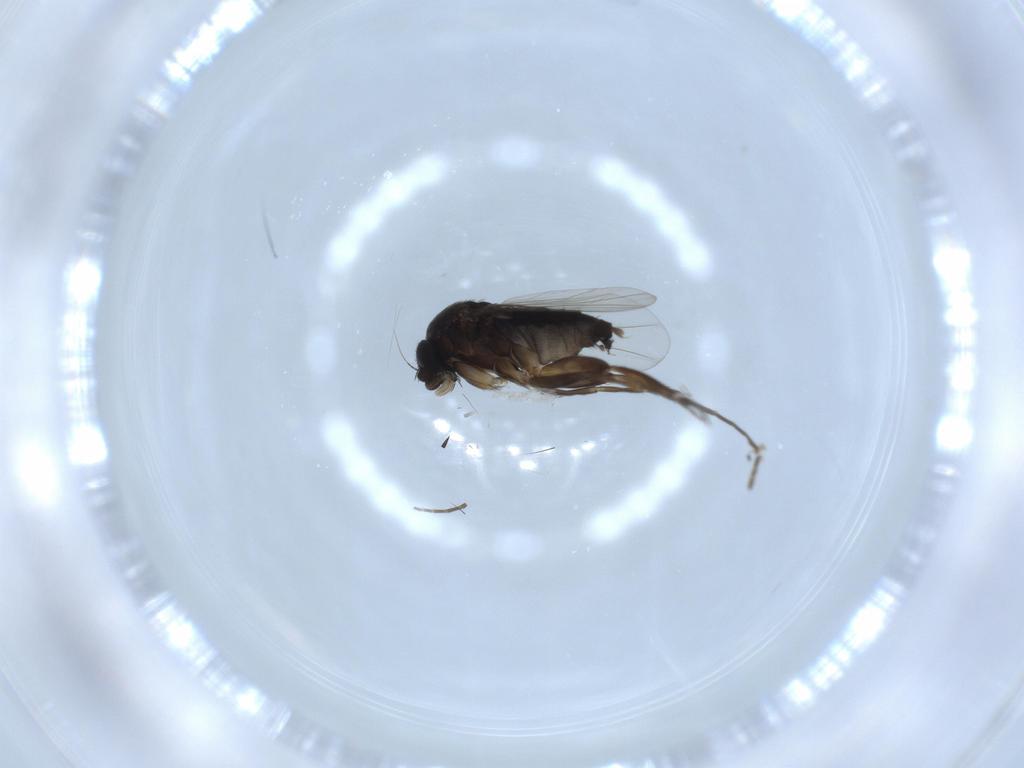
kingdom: Animalia
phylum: Arthropoda
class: Insecta
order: Diptera
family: Phoridae
